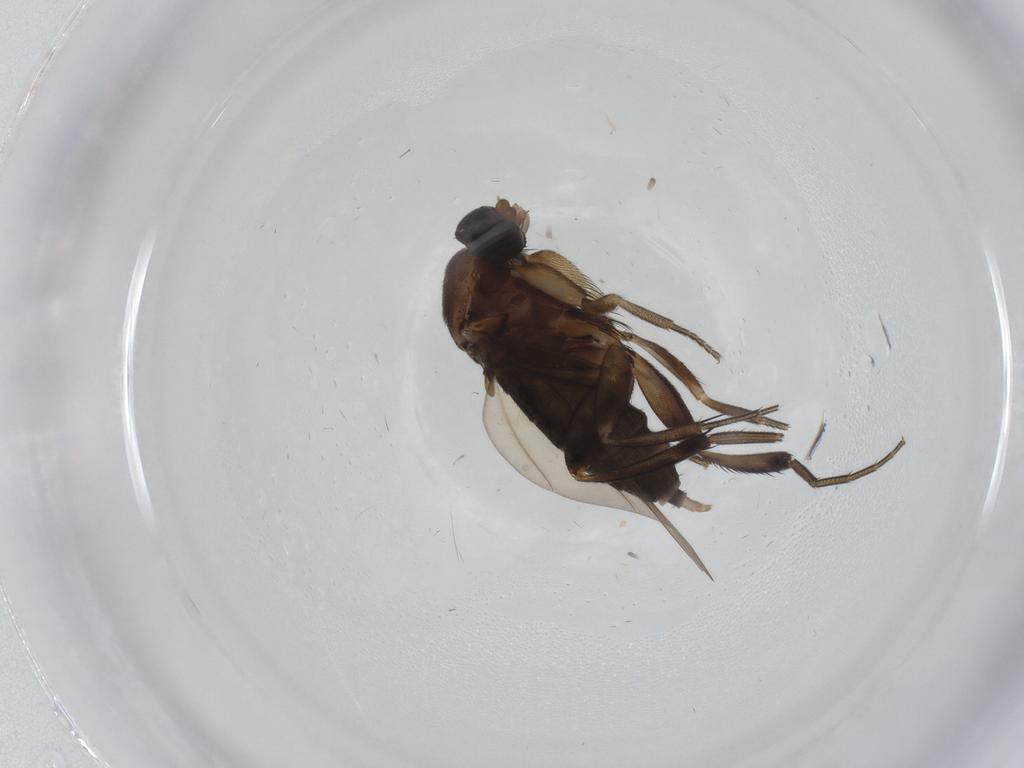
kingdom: Animalia
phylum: Arthropoda
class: Insecta
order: Diptera
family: Phoridae
